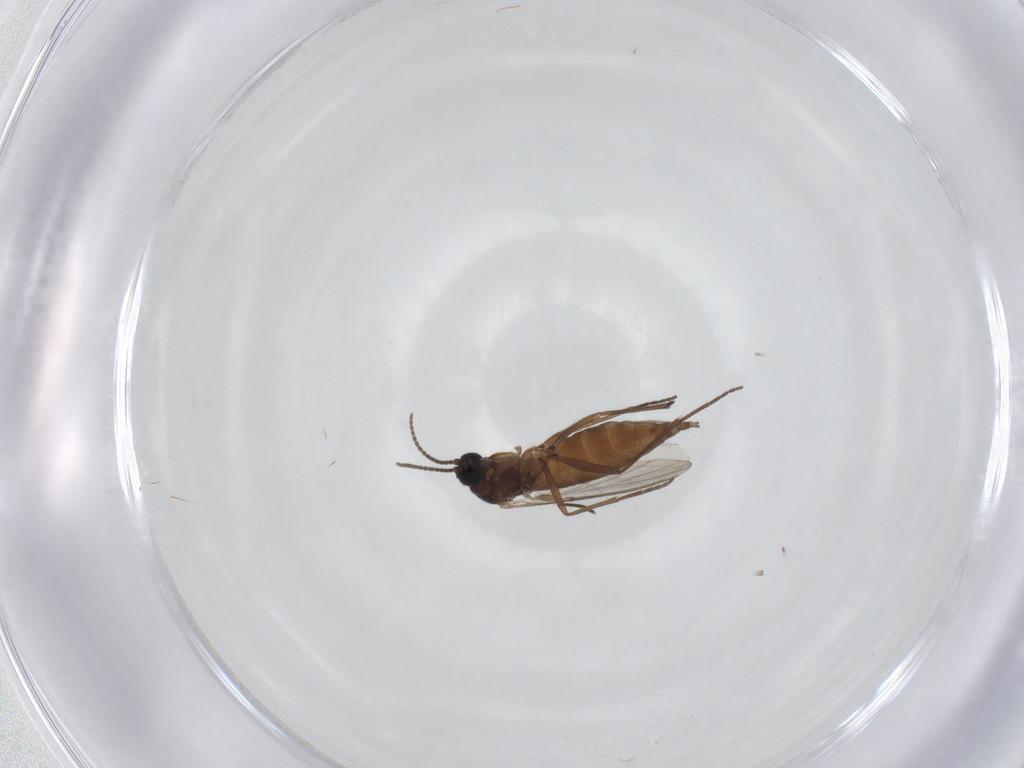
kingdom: Animalia
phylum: Arthropoda
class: Insecta
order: Diptera
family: Sciaridae
